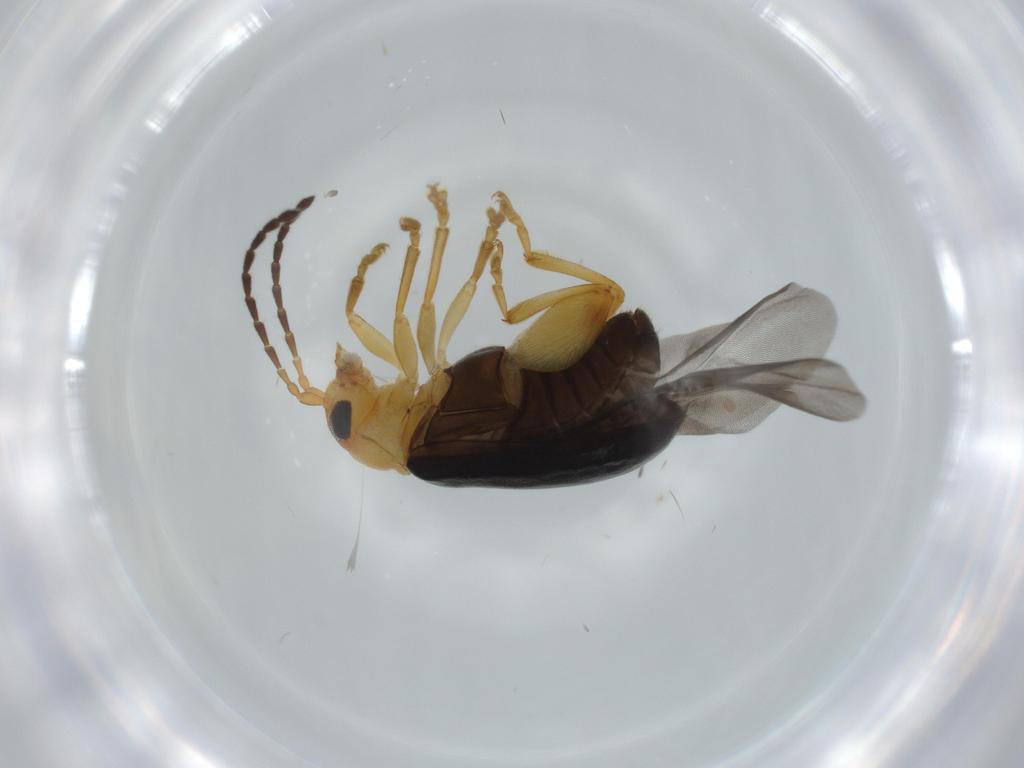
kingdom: Animalia
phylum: Arthropoda
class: Insecta
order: Coleoptera
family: Chrysomelidae
